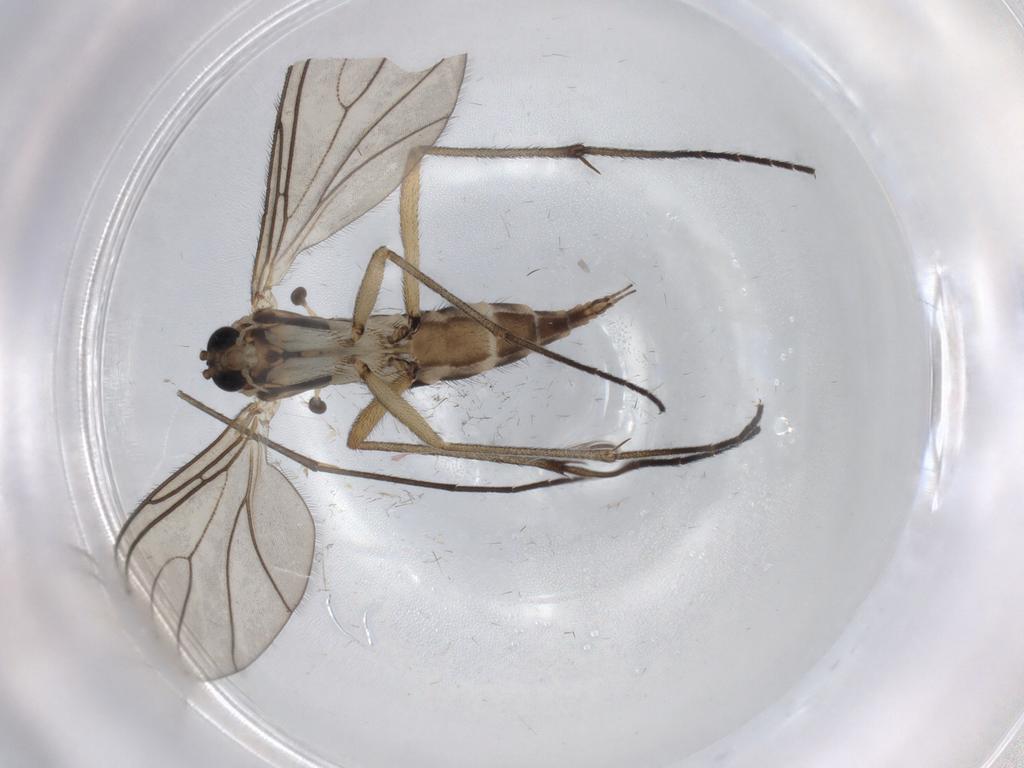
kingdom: Animalia
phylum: Arthropoda
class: Insecta
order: Diptera
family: Sciaridae
